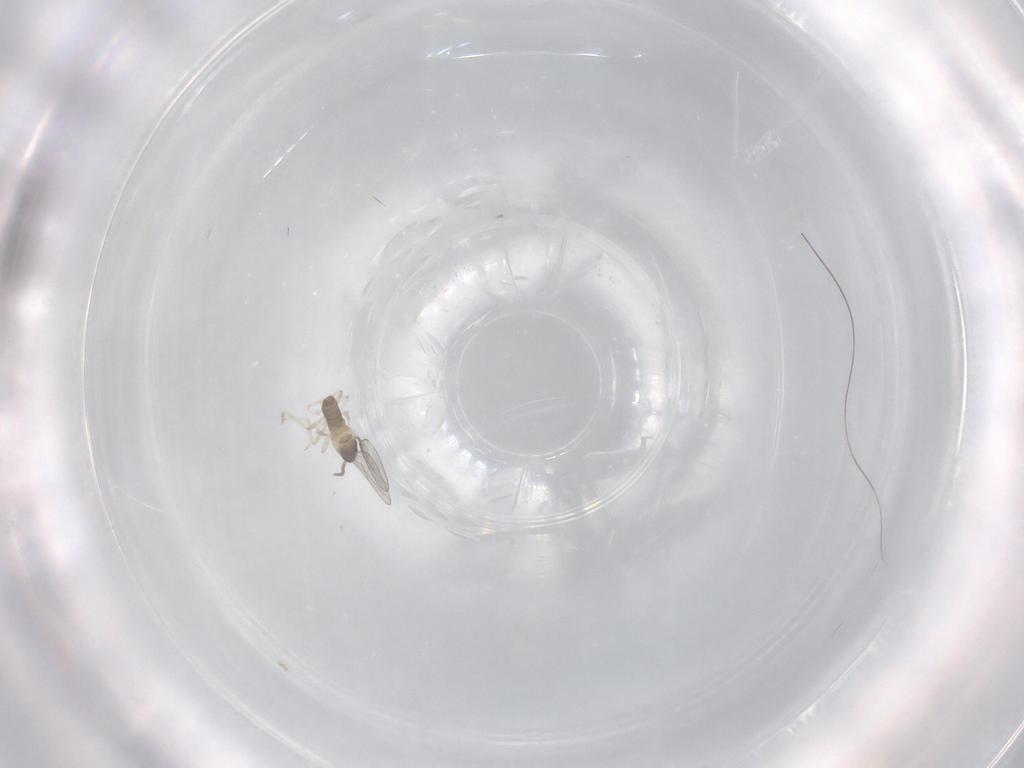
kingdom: Animalia
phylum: Arthropoda
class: Insecta
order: Diptera
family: Cecidomyiidae
